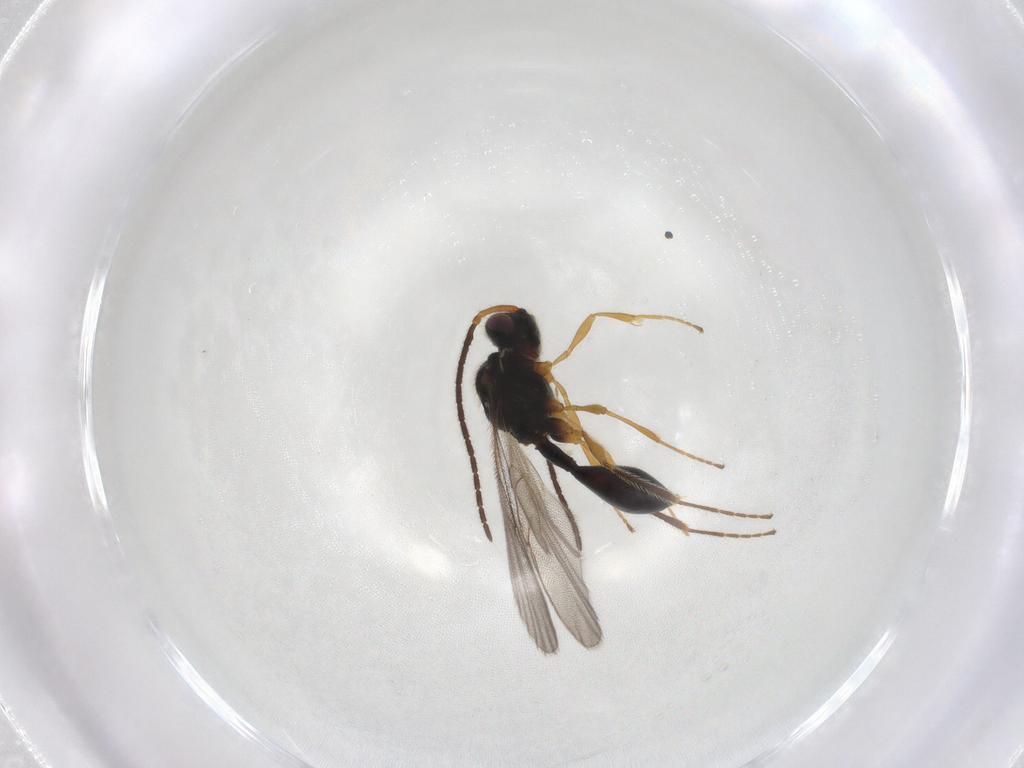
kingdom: Animalia
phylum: Arthropoda
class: Insecta
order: Hymenoptera
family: Diapriidae
